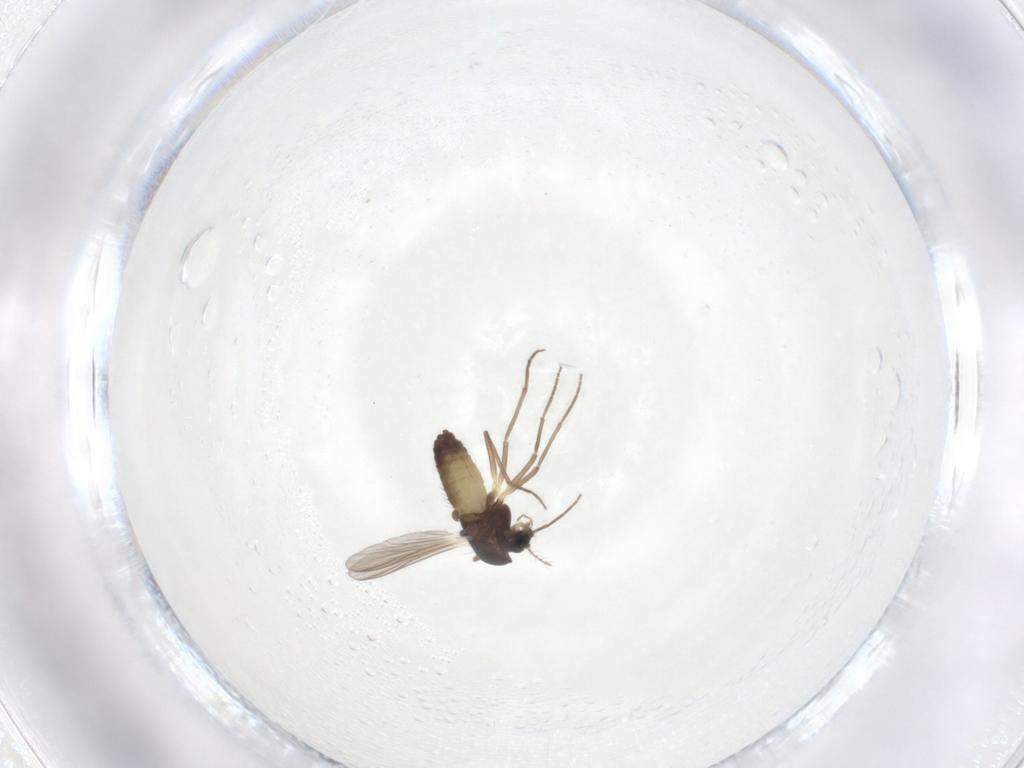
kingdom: Animalia
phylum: Arthropoda
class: Insecta
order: Diptera
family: Chironomidae
